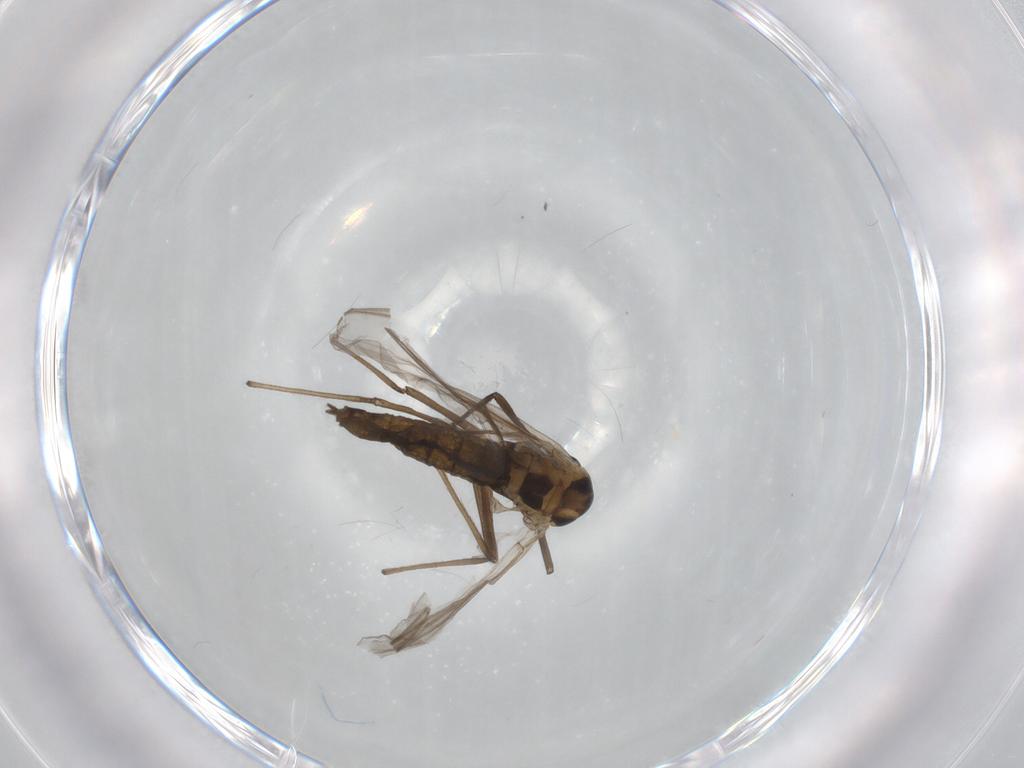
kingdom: Animalia
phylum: Arthropoda
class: Insecta
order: Diptera
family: Chironomidae
